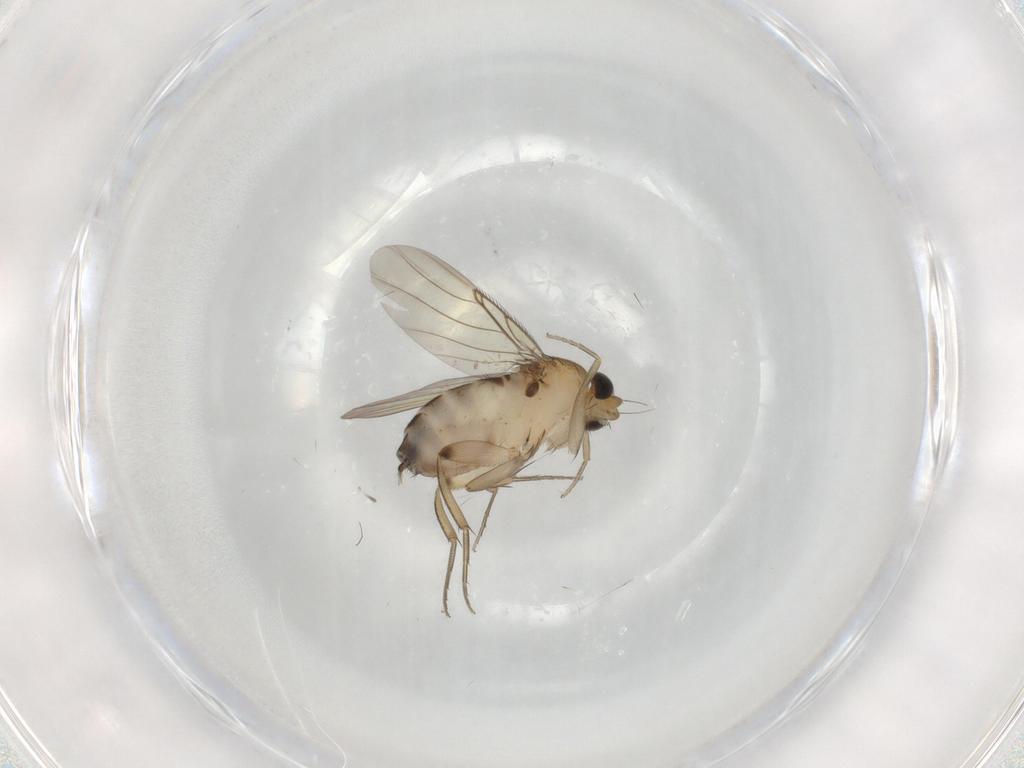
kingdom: Animalia
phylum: Arthropoda
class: Insecta
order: Diptera
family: Phoridae
